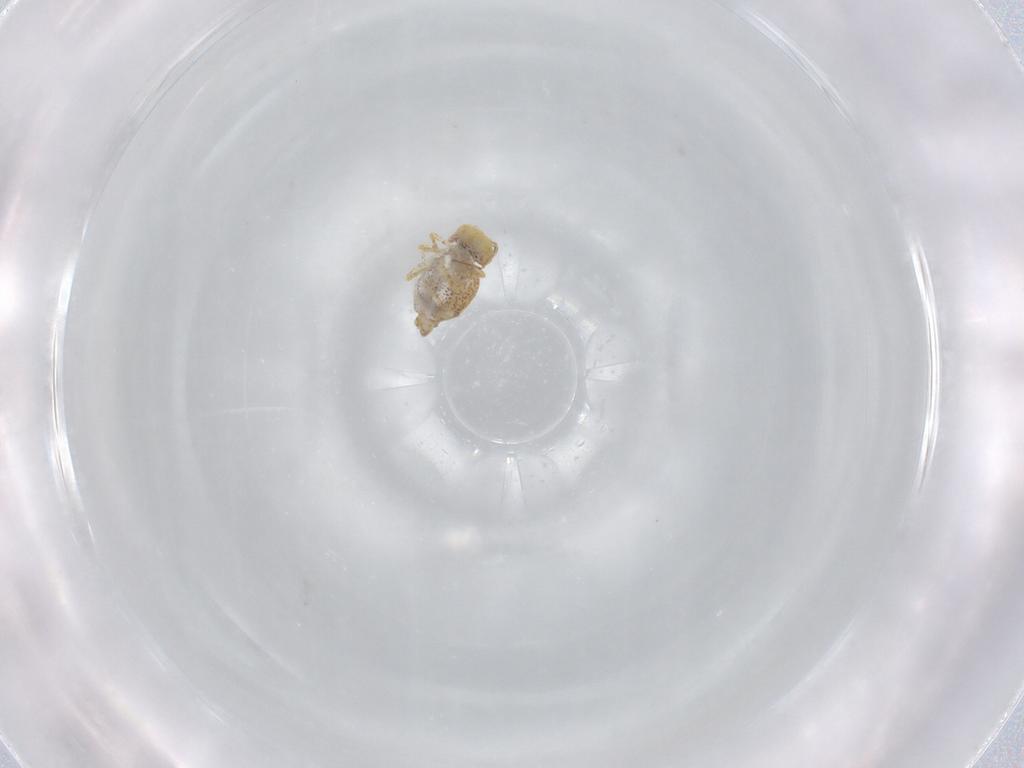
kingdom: Animalia
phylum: Arthropoda
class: Collembola
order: Symphypleona
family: Bourletiellidae
